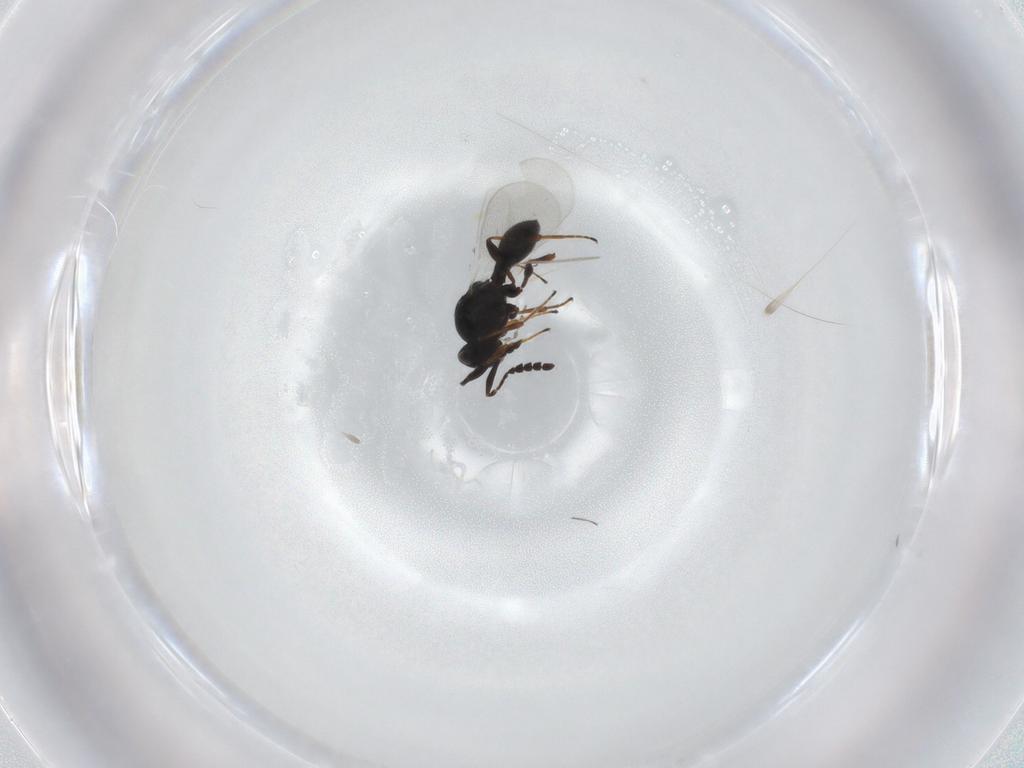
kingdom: Animalia
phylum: Arthropoda
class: Insecta
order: Hymenoptera
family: Platygastridae
